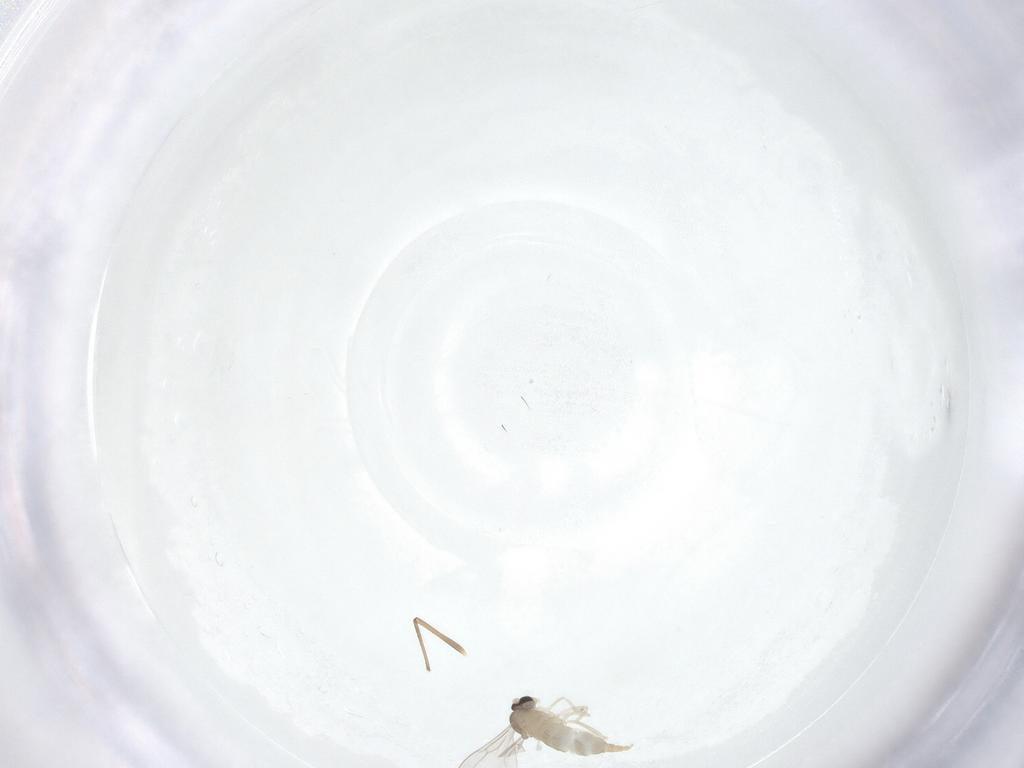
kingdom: Animalia
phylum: Arthropoda
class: Insecta
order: Diptera
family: Cecidomyiidae
